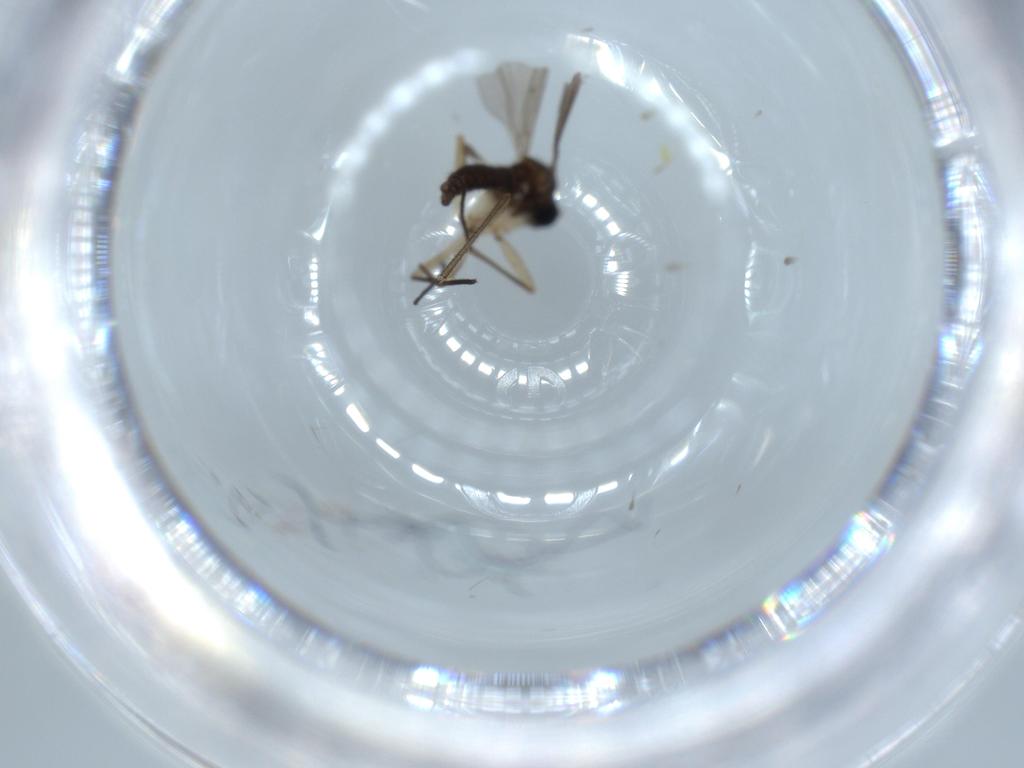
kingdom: Animalia
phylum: Arthropoda
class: Insecta
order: Diptera
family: Sciaridae
